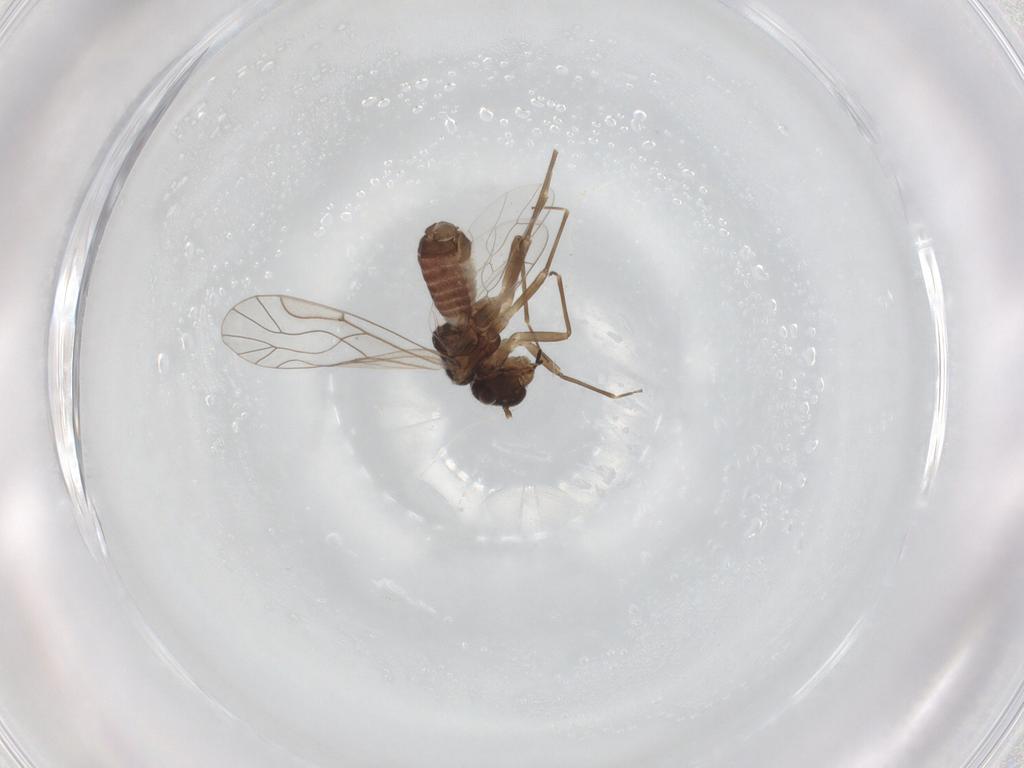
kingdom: Animalia
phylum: Arthropoda
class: Insecta
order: Psocodea
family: Lachesillidae
